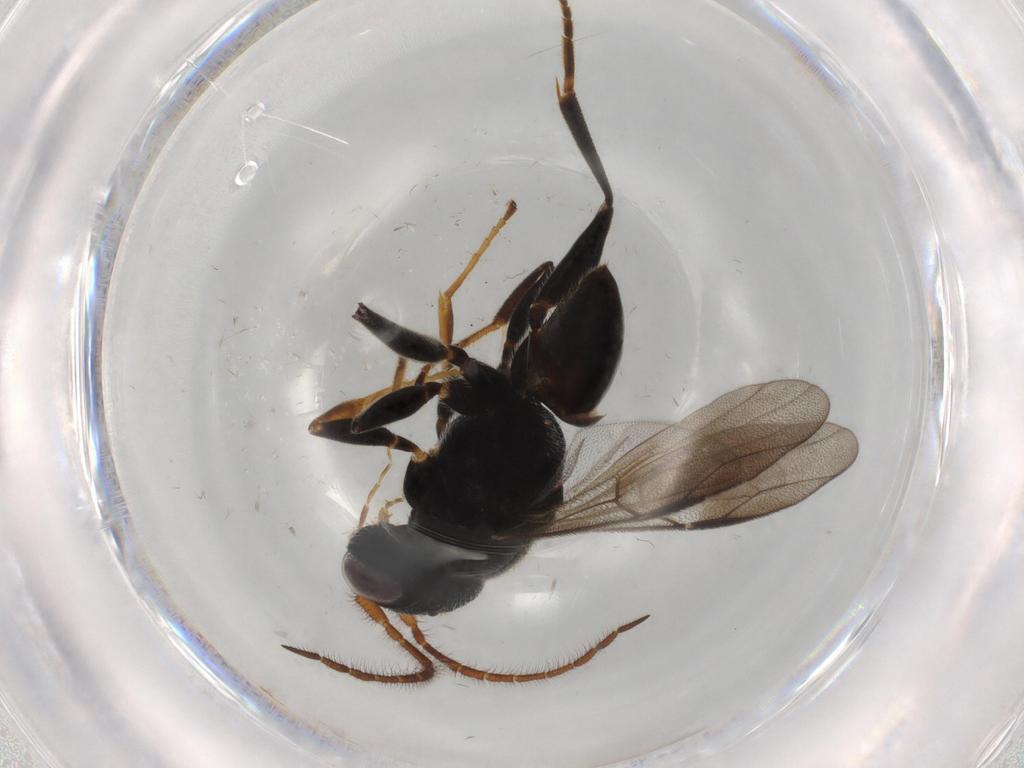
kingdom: Animalia
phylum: Arthropoda
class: Insecta
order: Hymenoptera
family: Dryinidae
